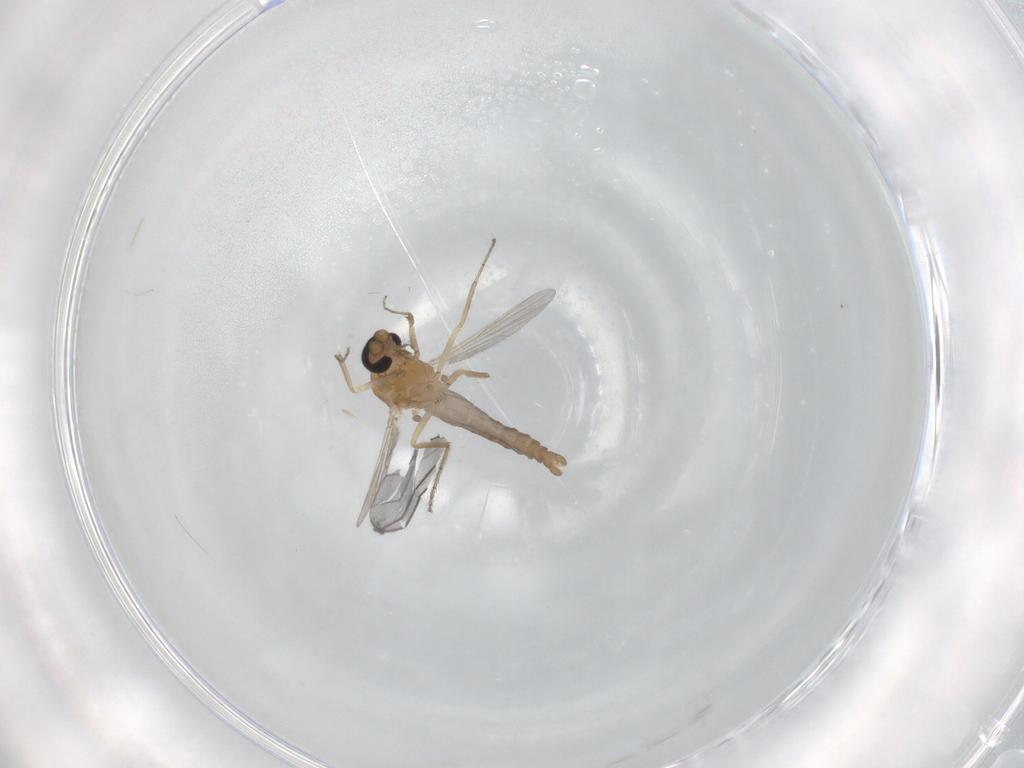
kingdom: Animalia
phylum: Arthropoda
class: Insecta
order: Diptera
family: Ceratopogonidae
